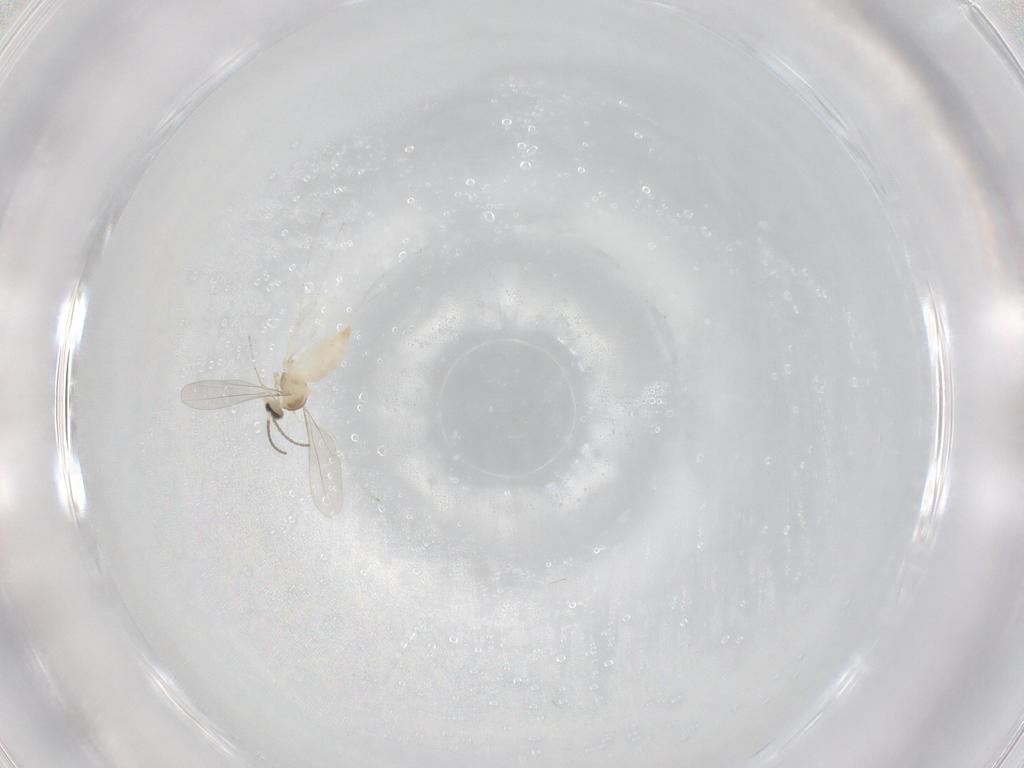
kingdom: Animalia
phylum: Arthropoda
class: Insecta
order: Diptera
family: Cecidomyiidae
